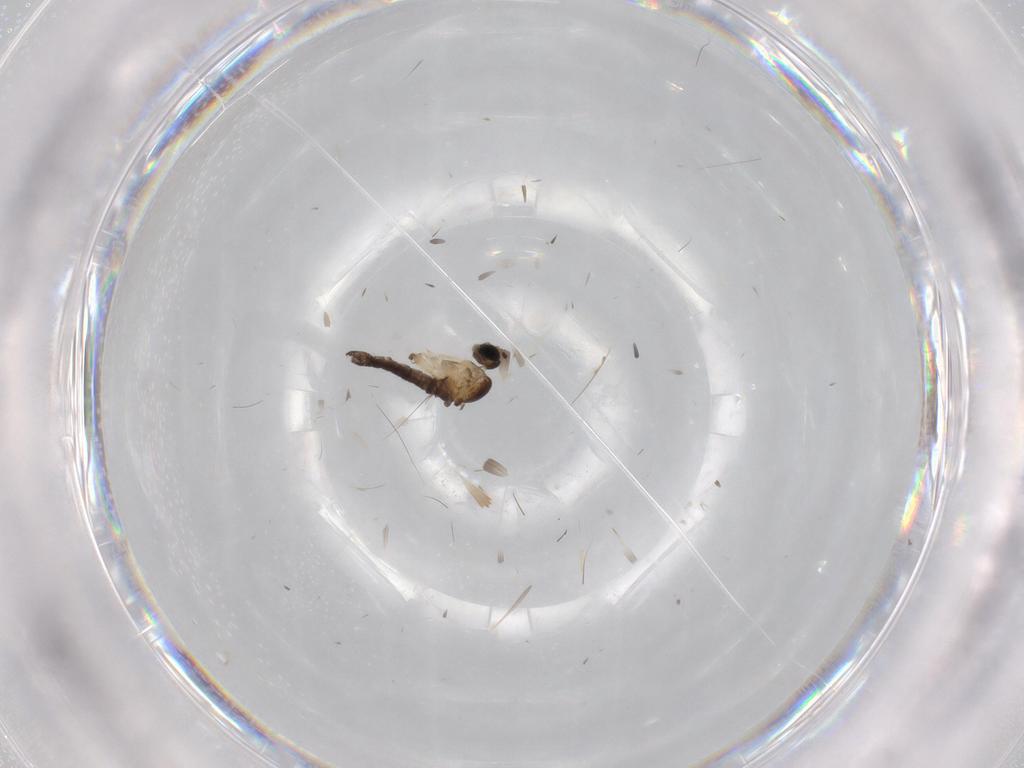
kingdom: Animalia
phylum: Arthropoda
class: Insecta
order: Diptera
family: Sciaridae
